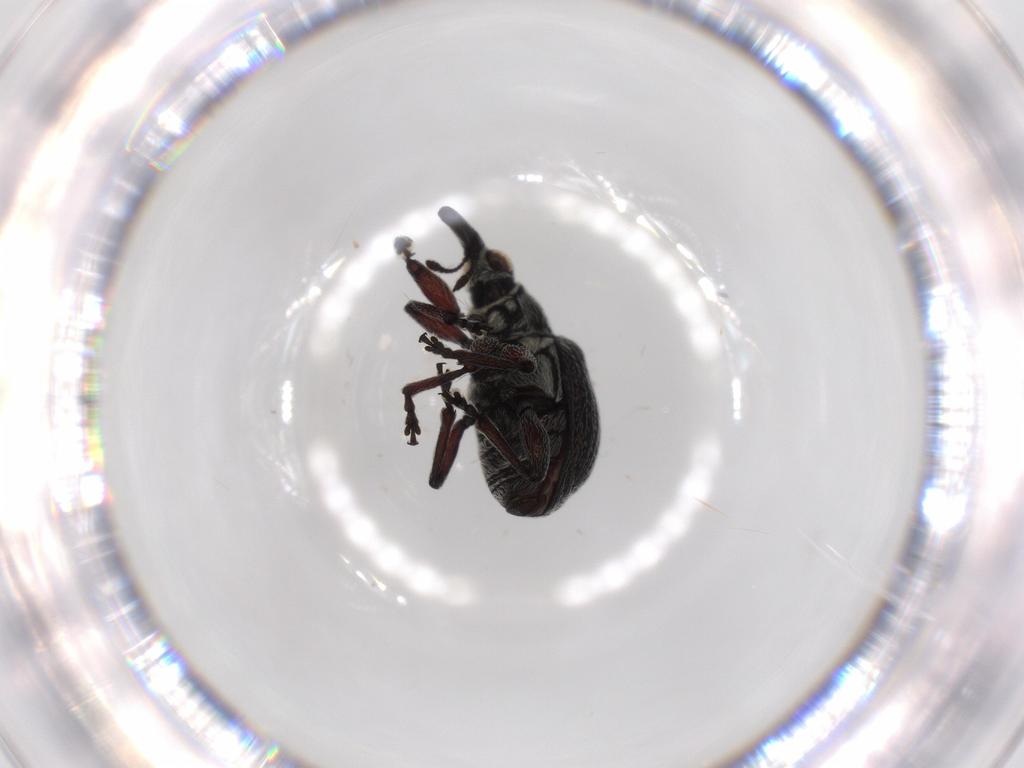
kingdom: Animalia
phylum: Arthropoda
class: Insecta
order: Coleoptera
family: Brentidae
